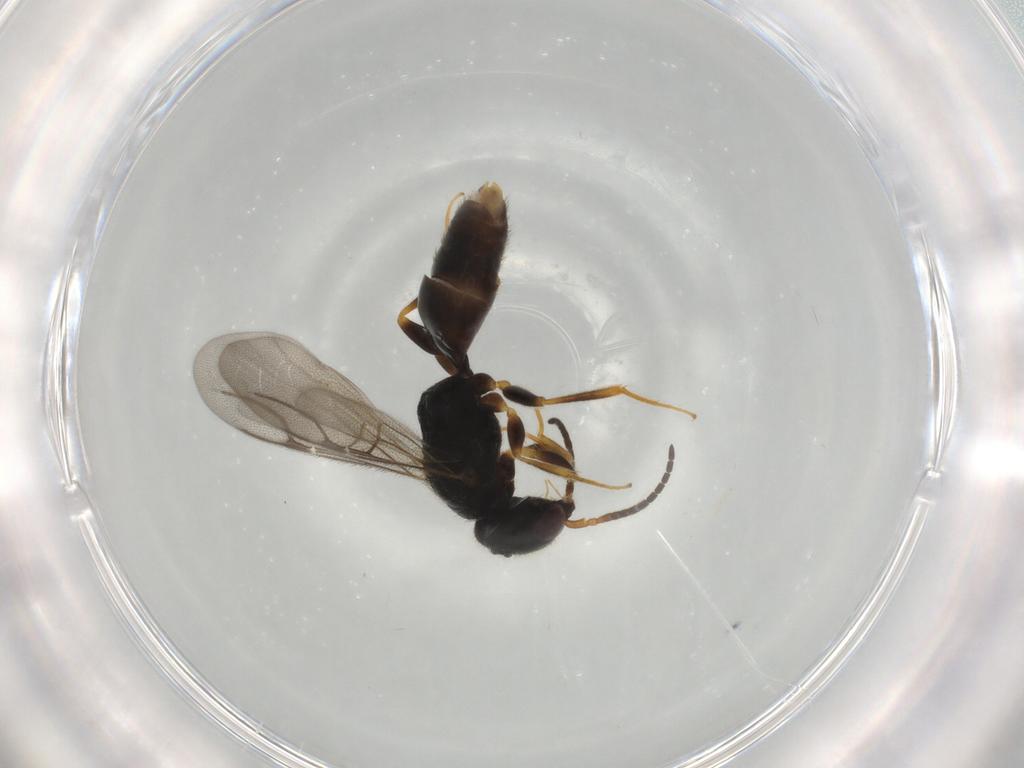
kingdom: Animalia
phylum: Arthropoda
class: Insecta
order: Hymenoptera
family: Bethylidae
